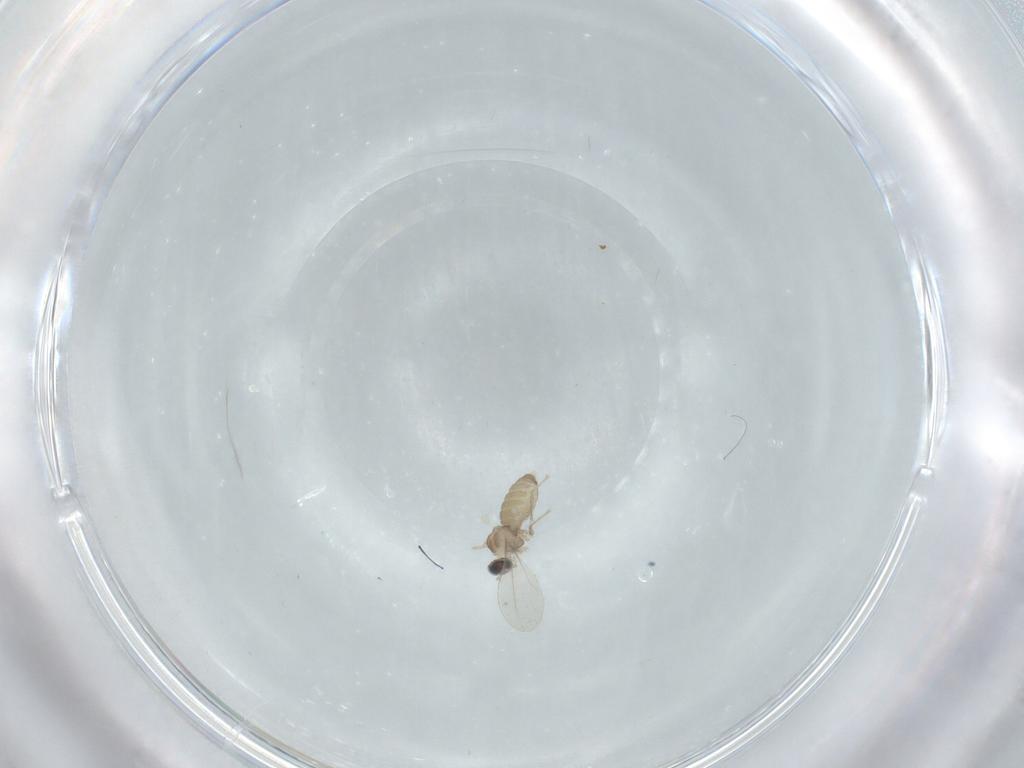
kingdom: Animalia
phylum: Arthropoda
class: Insecta
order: Diptera
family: Cecidomyiidae
